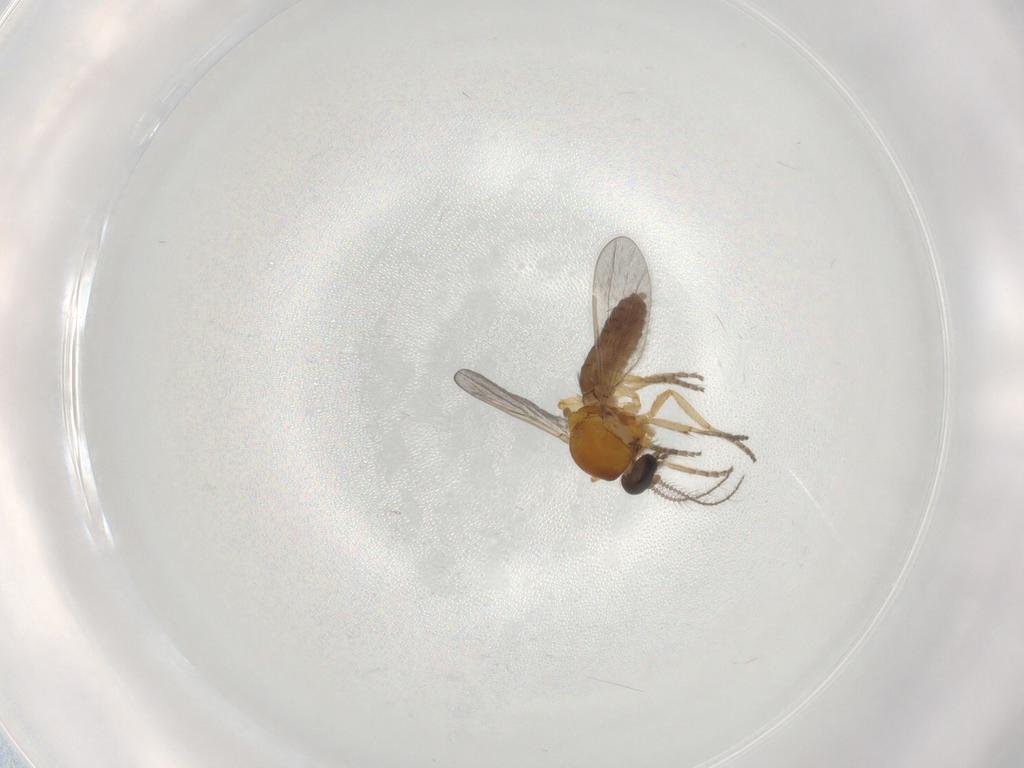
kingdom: Animalia
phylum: Arthropoda
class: Insecta
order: Diptera
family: Ceratopogonidae
